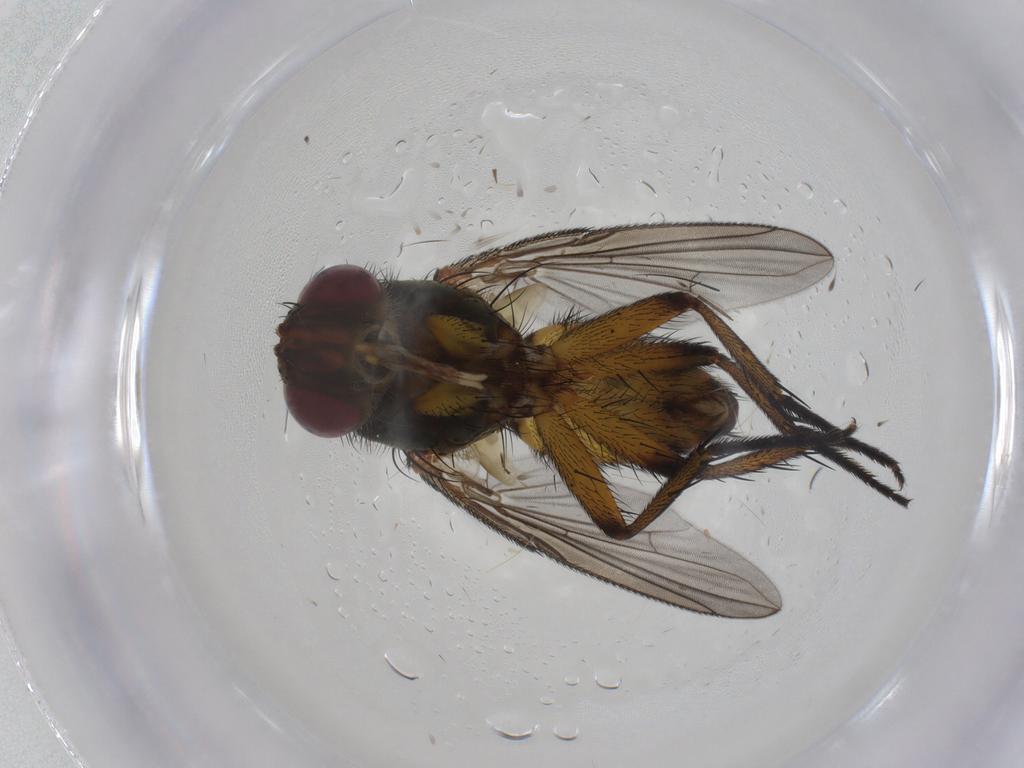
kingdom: Animalia
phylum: Arthropoda
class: Insecta
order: Diptera
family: Tachinidae
